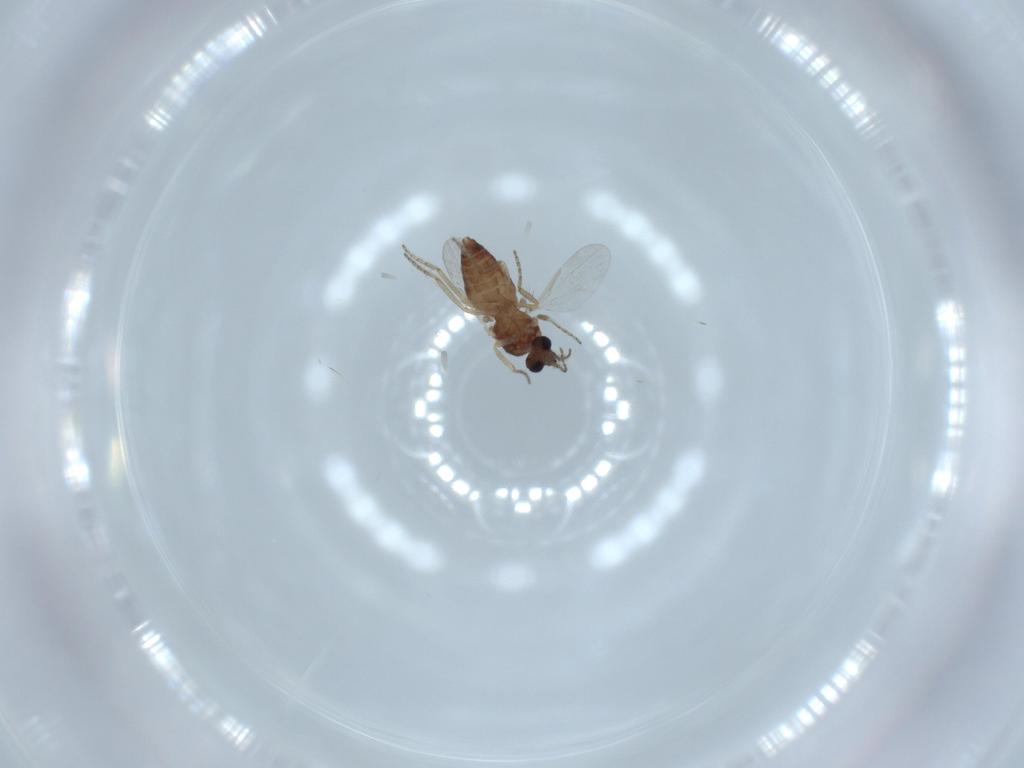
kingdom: Animalia
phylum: Arthropoda
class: Insecta
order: Diptera
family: Ceratopogonidae
